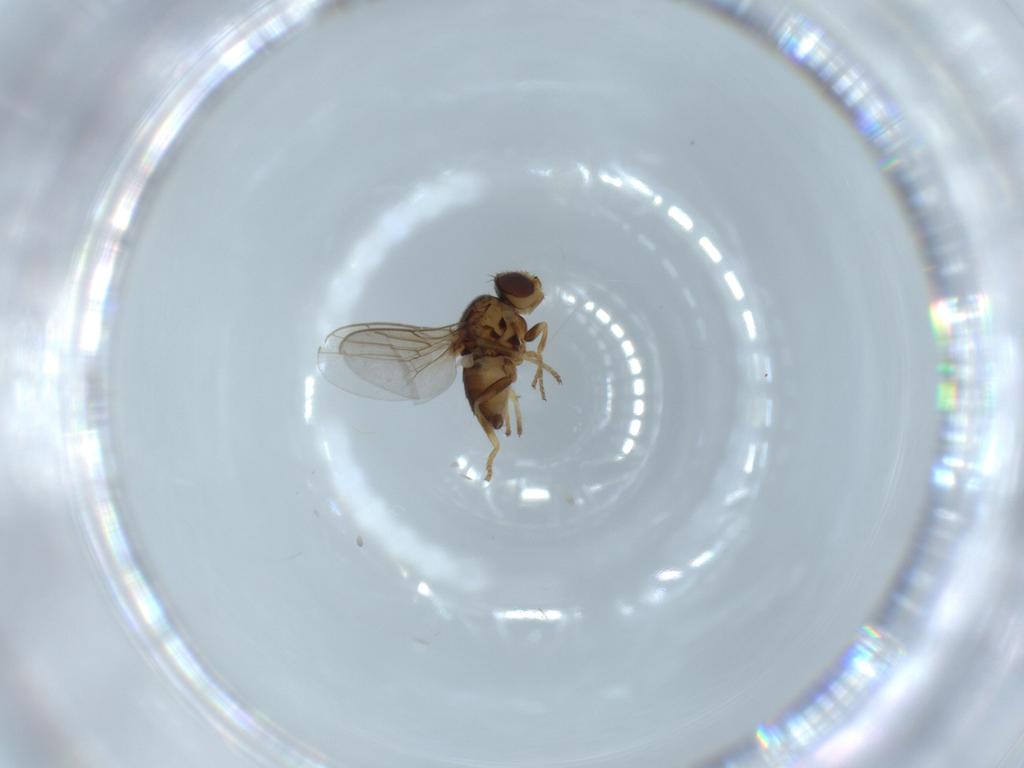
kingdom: Animalia
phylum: Arthropoda
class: Insecta
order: Diptera
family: Chloropidae
